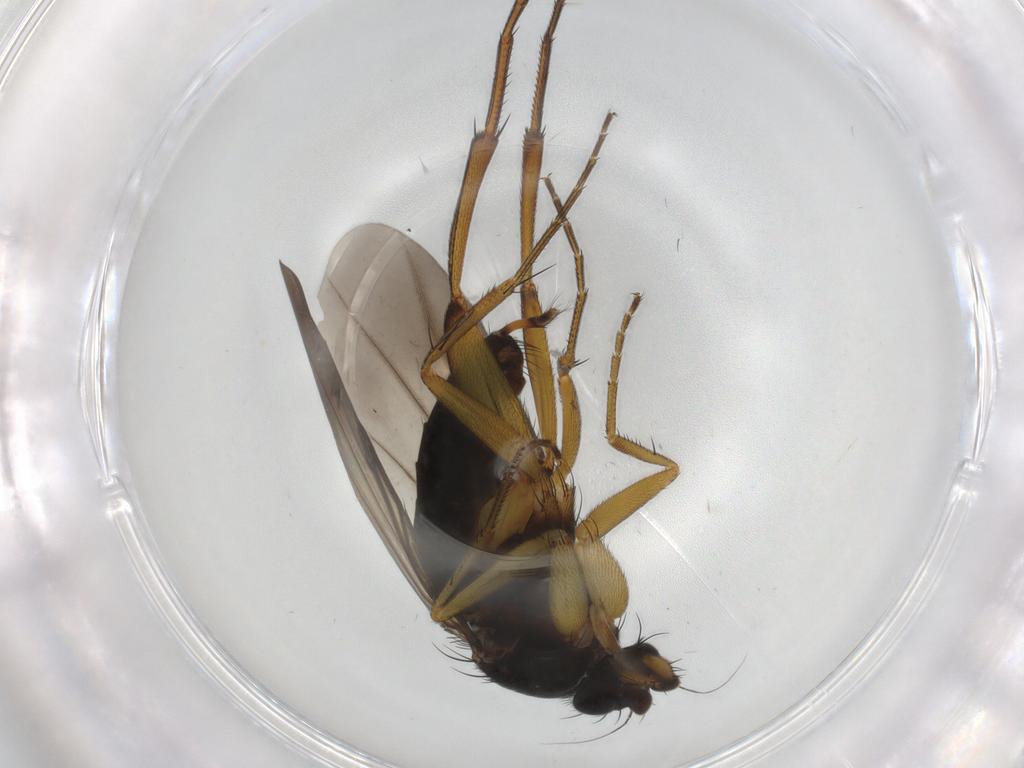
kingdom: Animalia
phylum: Arthropoda
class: Insecta
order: Diptera
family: Phoridae
